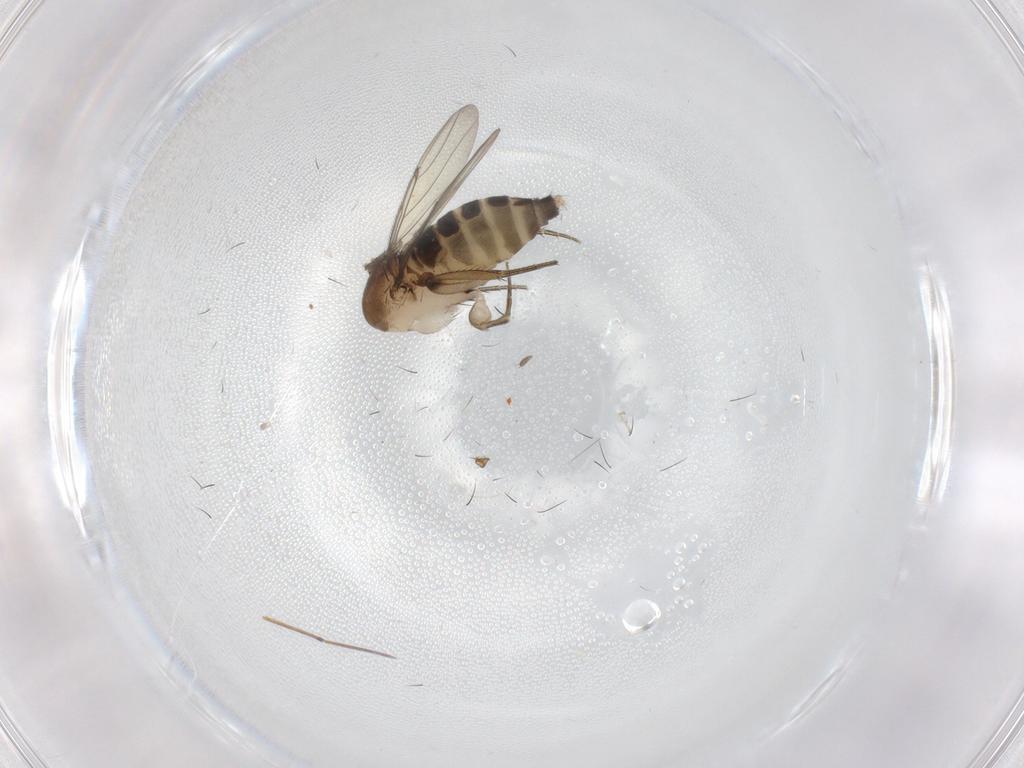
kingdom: Animalia
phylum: Arthropoda
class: Insecta
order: Diptera
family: Phoridae
